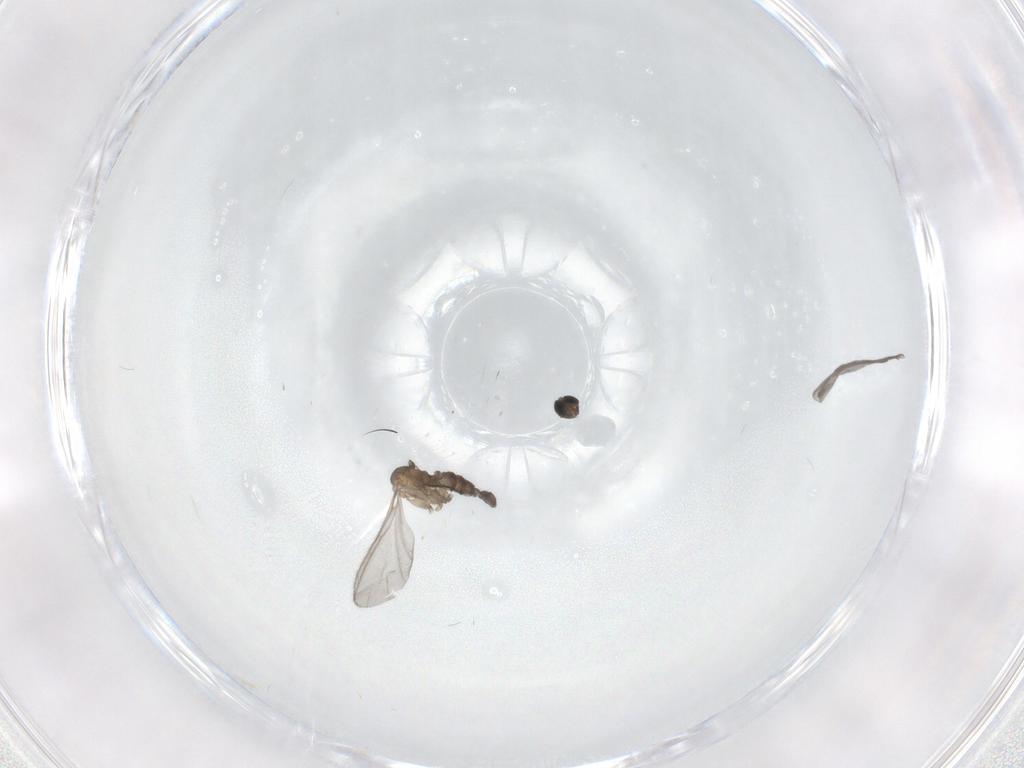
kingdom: Animalia
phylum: Arthropoda
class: Insecta
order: Diptera
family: Sciaridae
